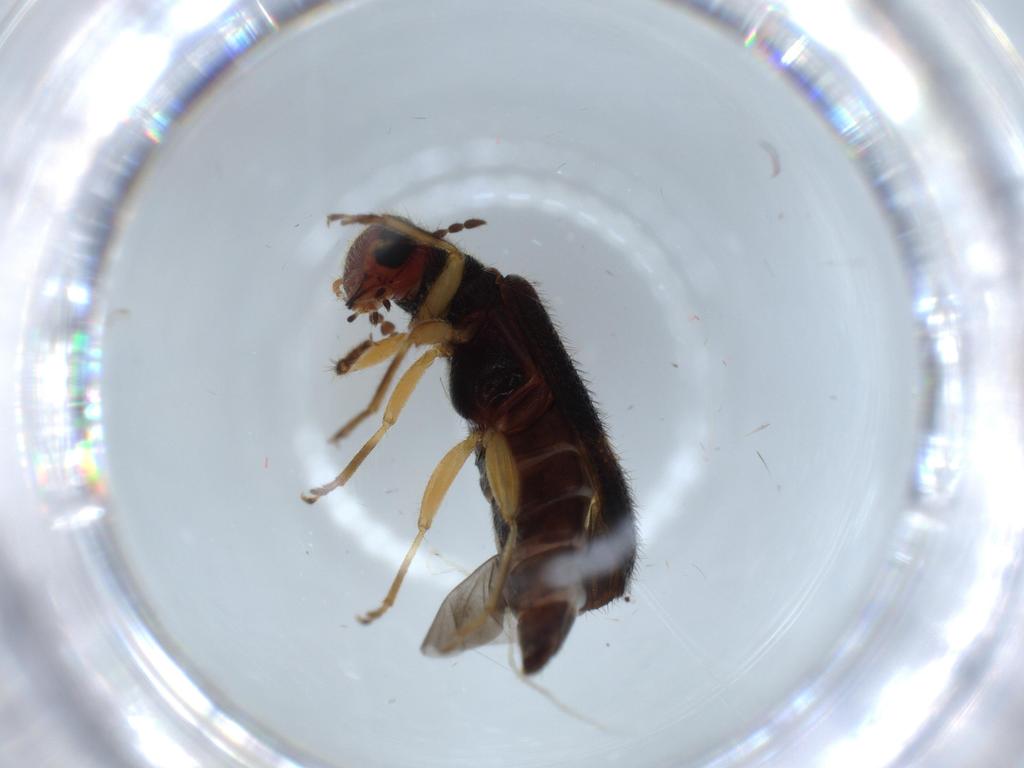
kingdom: Animalia
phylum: Arthropoda
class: Insecta
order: Coleoptera
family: Cleridae
